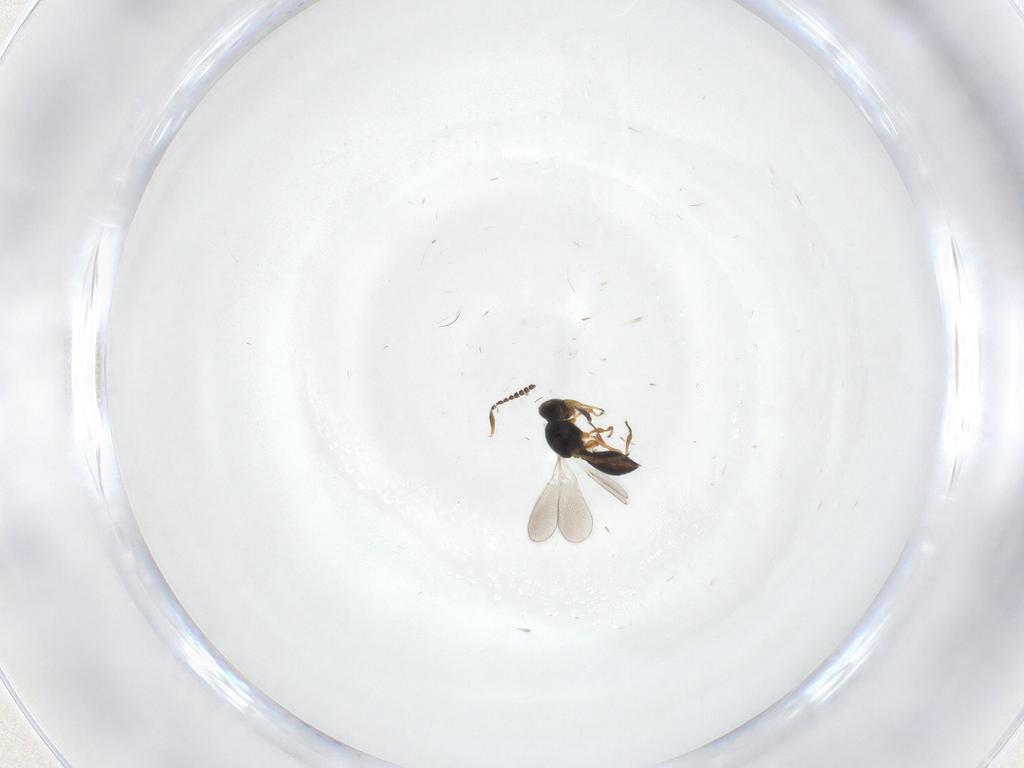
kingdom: Animalia
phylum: Arthropoda
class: Insecta
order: Hymenoptera
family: Platygastridae
